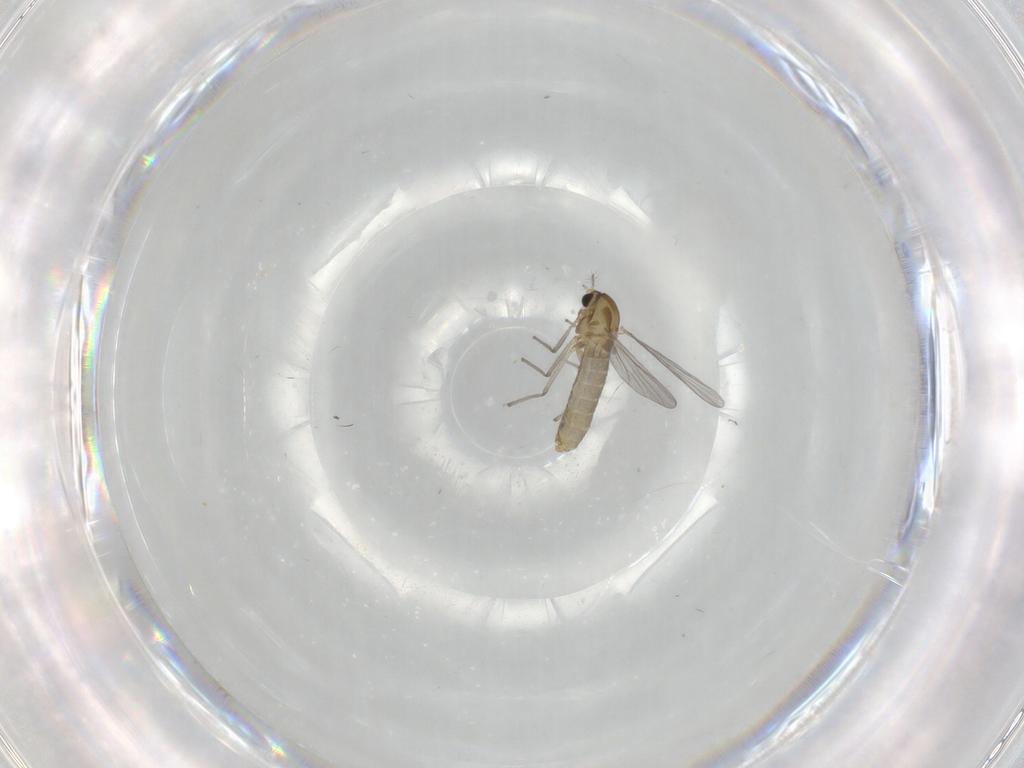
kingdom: Animalia
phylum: Arthropoda
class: Insecta
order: Diptera
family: Chironomidae
